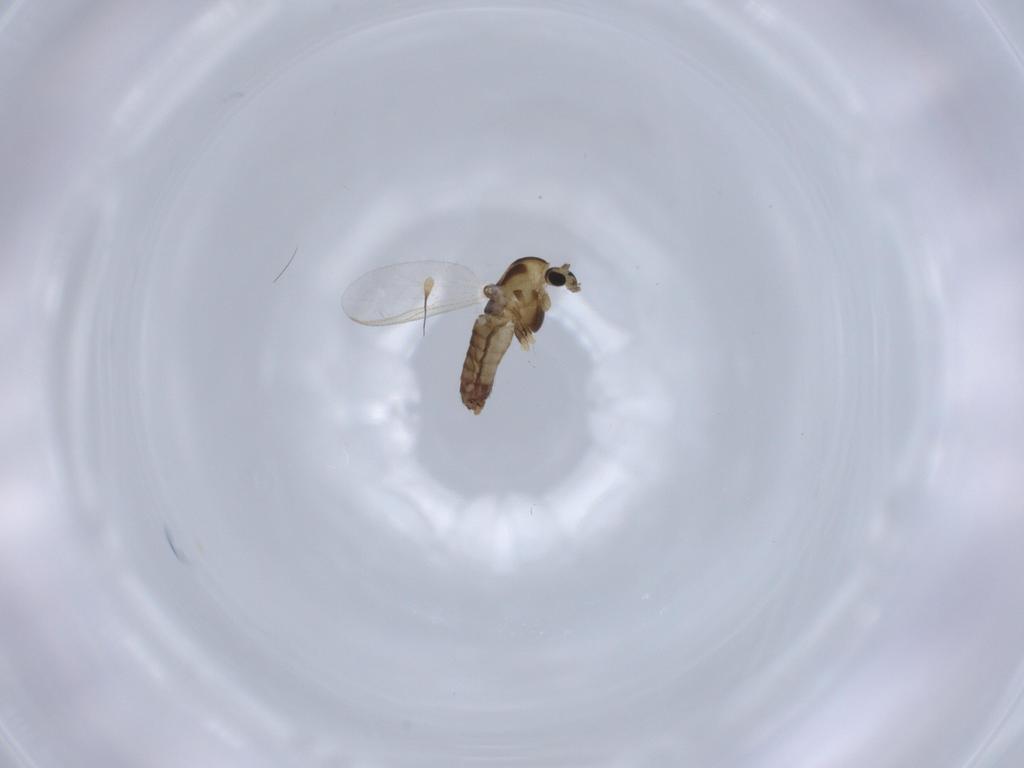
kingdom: Animalia
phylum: Arthropoda
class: Insecta
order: Diptera
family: Chironomidae
